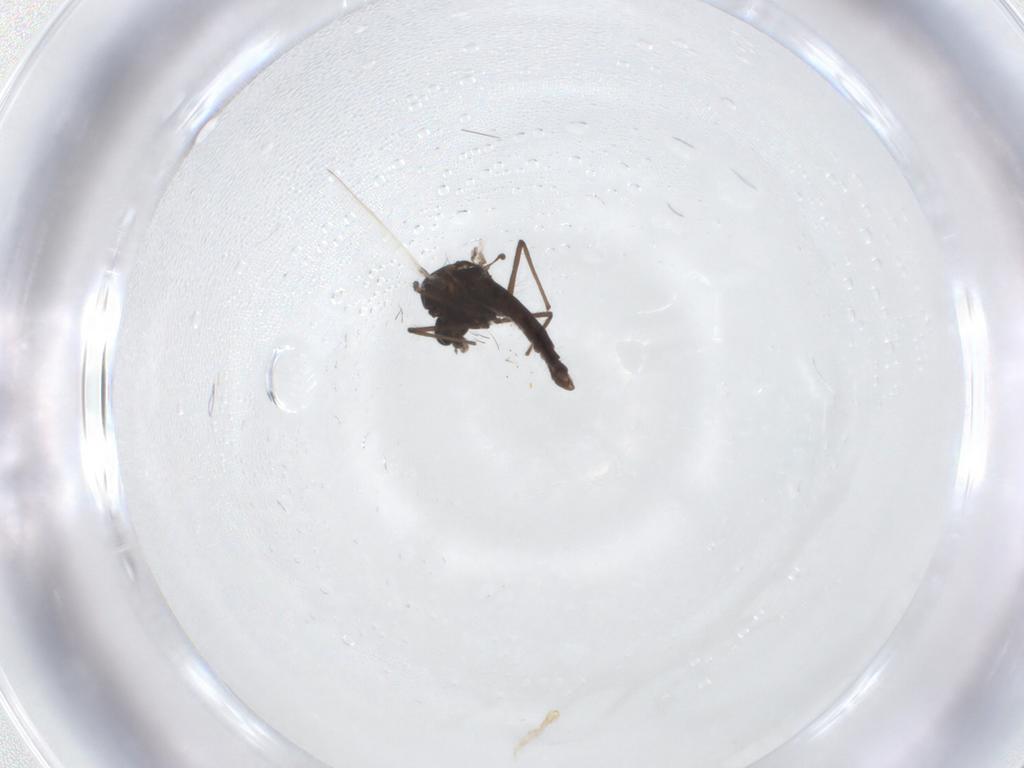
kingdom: Animalia
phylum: Arthropoda
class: Insecta
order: Diptera
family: Chironomidae
